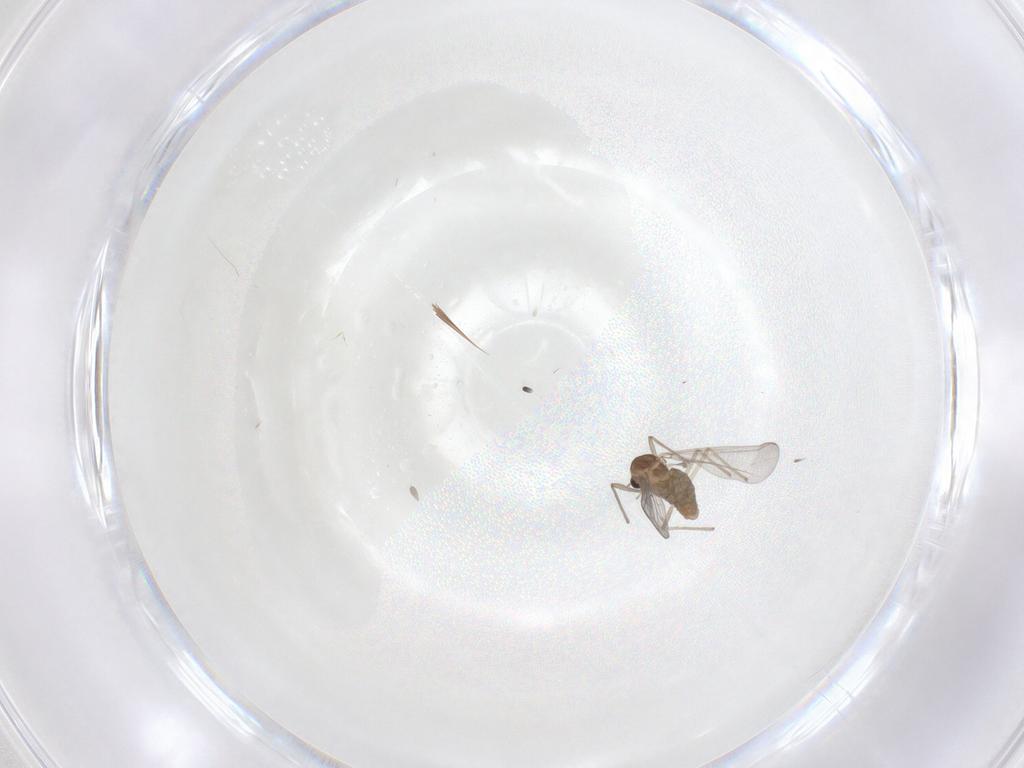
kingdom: Animalia
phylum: Arthropoda
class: Insecta
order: Diptera
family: Chironomidae
